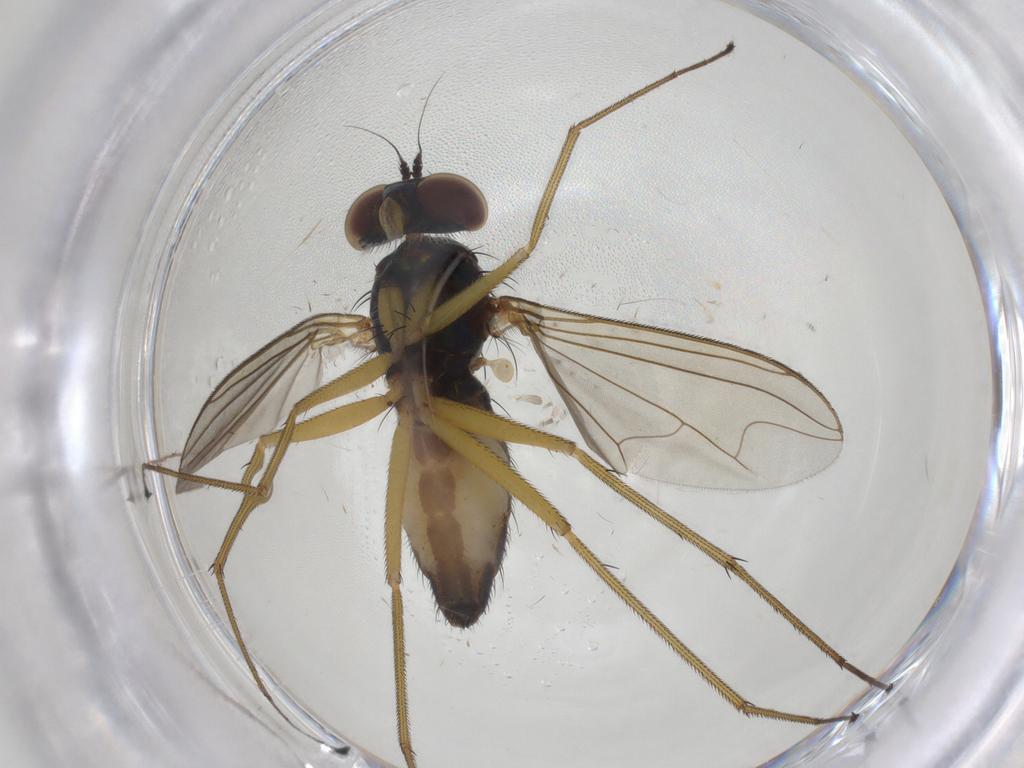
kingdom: Animalia
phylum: Arthropoda
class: Insecta
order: Diptera
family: Dolichopodidae
